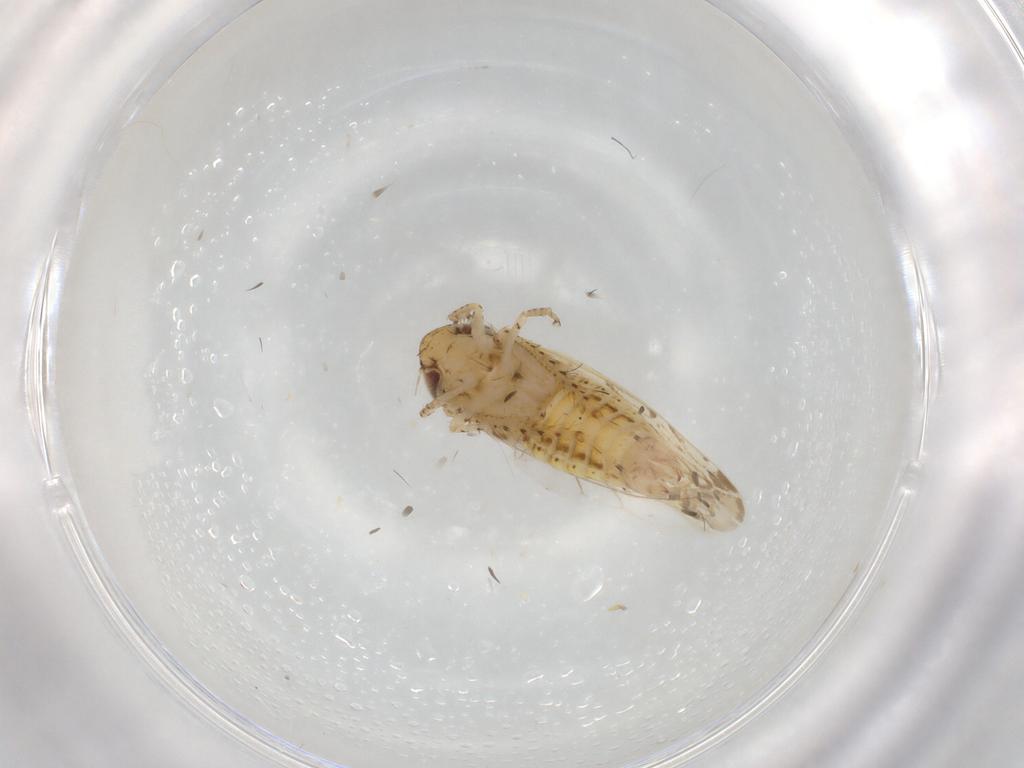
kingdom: Animalia
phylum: Arthropoda
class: Insecta
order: Hemiptera
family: Cicadellidae
